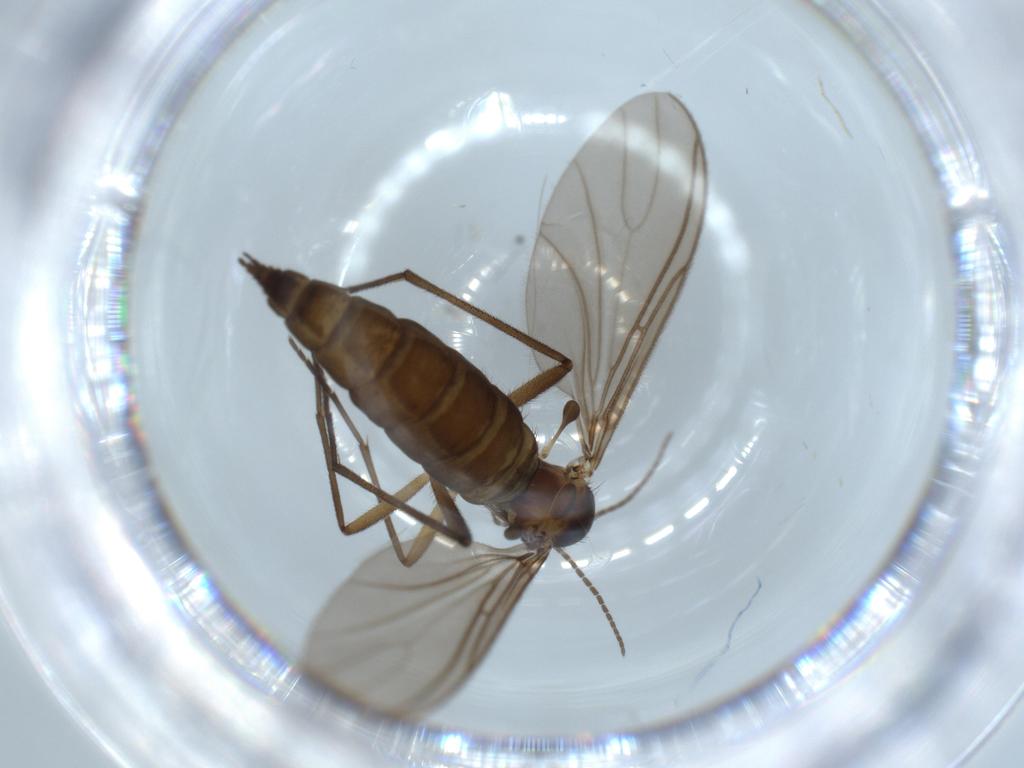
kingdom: Animalia
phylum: Arthropoda
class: Insecta
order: Diptera
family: Sciaridae
